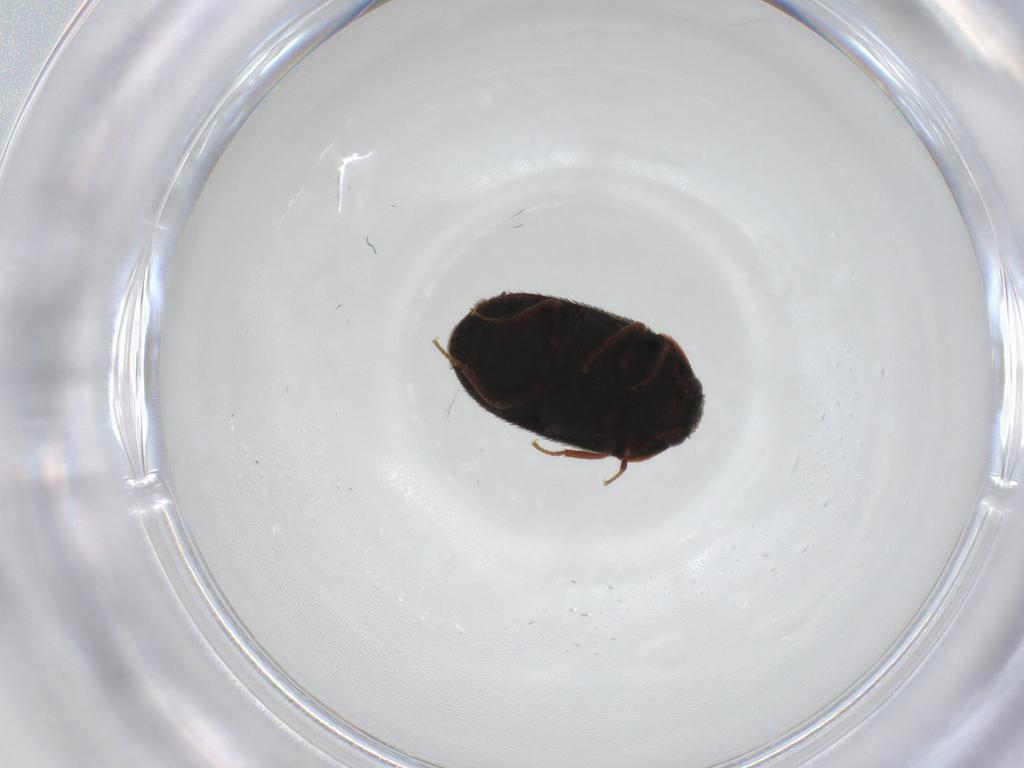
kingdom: Animalia
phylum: Arthropoda
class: Insecta
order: Coleoptera
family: Dermestidae
